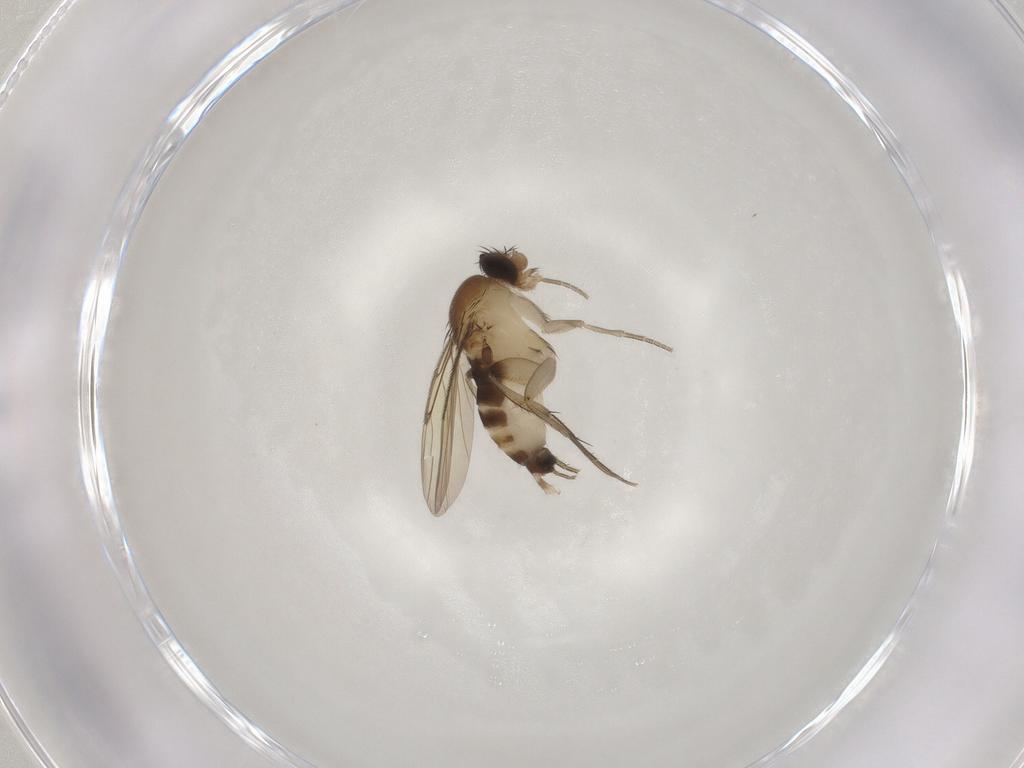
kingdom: Animalia
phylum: Arthropoda
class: Insecta
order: Diptera
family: Phoridae
